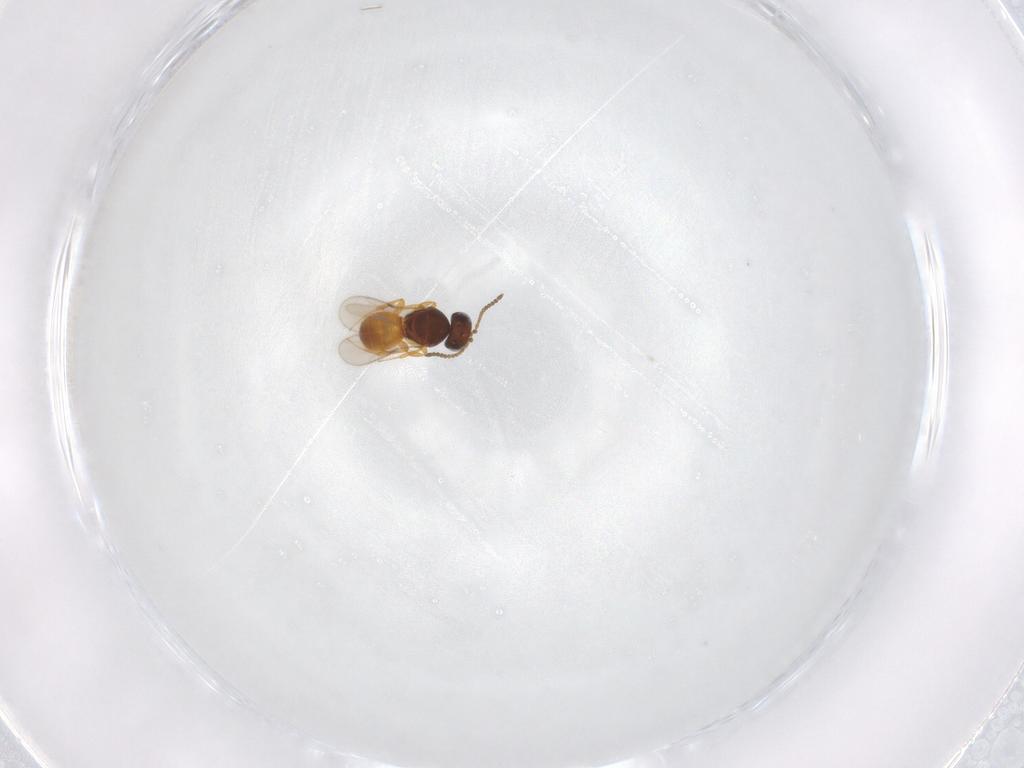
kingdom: Animalia
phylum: Arthropoda
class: Insecta
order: Hymenoptera
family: Scelionidae
